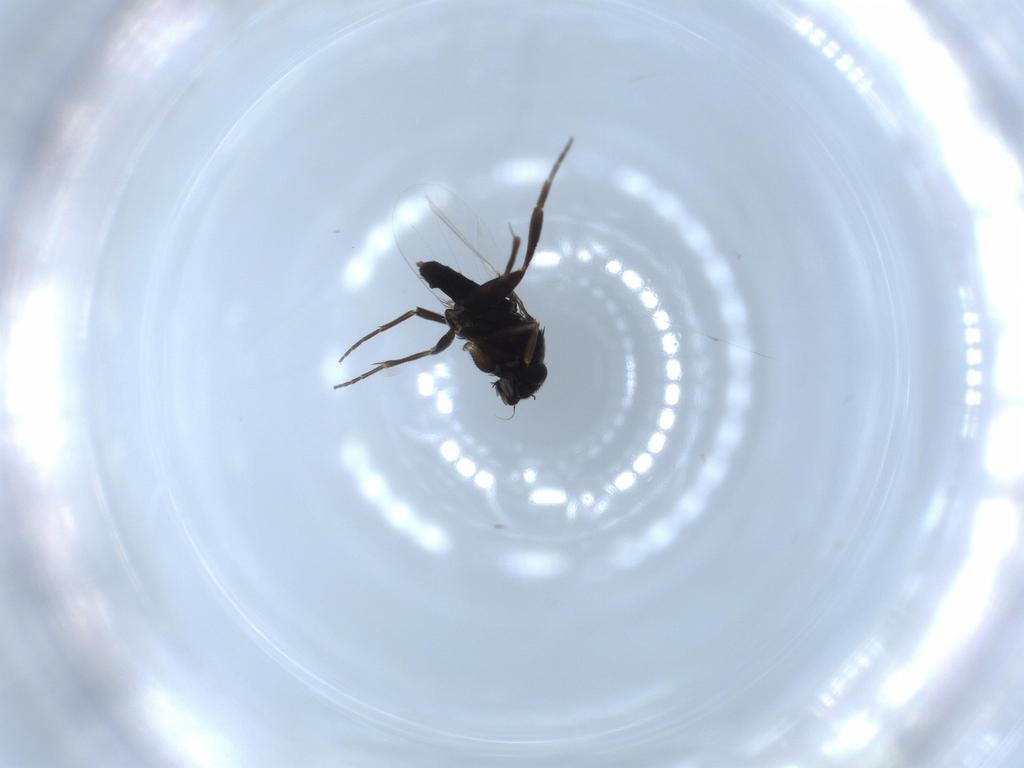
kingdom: Animalia
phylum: Arthropoda
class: Insecta
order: Diptera
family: Phoridae
